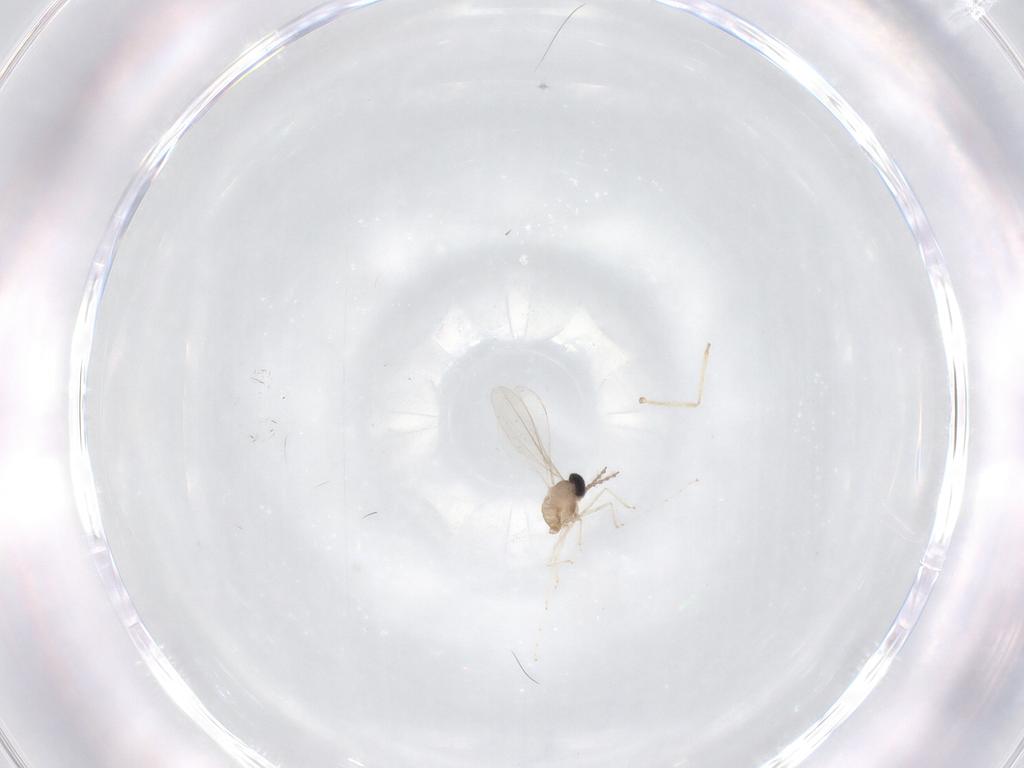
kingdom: Animalia
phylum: Arthropoda
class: Insecta
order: Diptera
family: Cecidomyiidae
